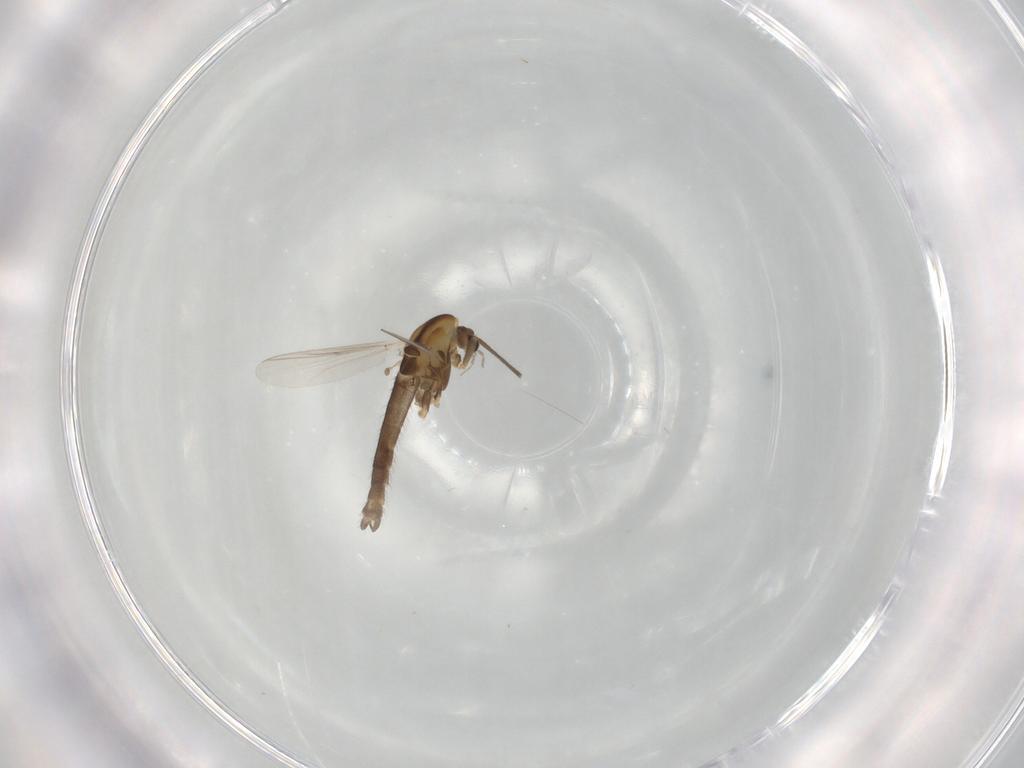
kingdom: Animalia
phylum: Arthropoda
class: Insecta
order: Diptera
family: Chironomidae
